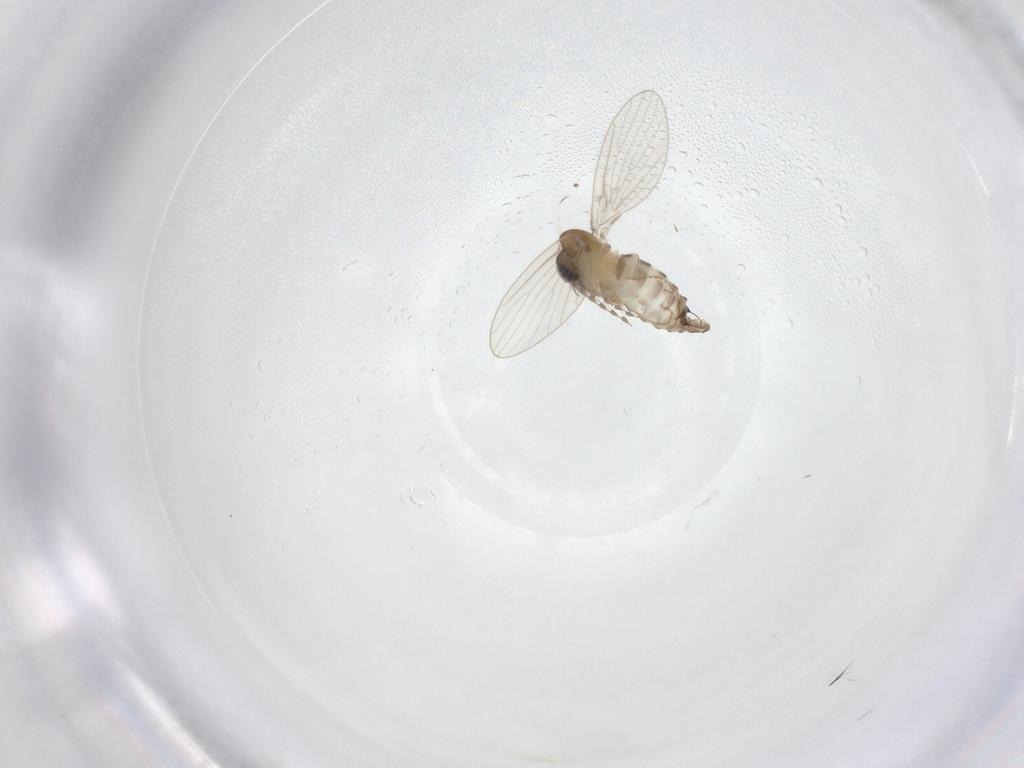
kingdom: Animalia
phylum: Arthropoda
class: Insecta
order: Diptera
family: Psychodidae
